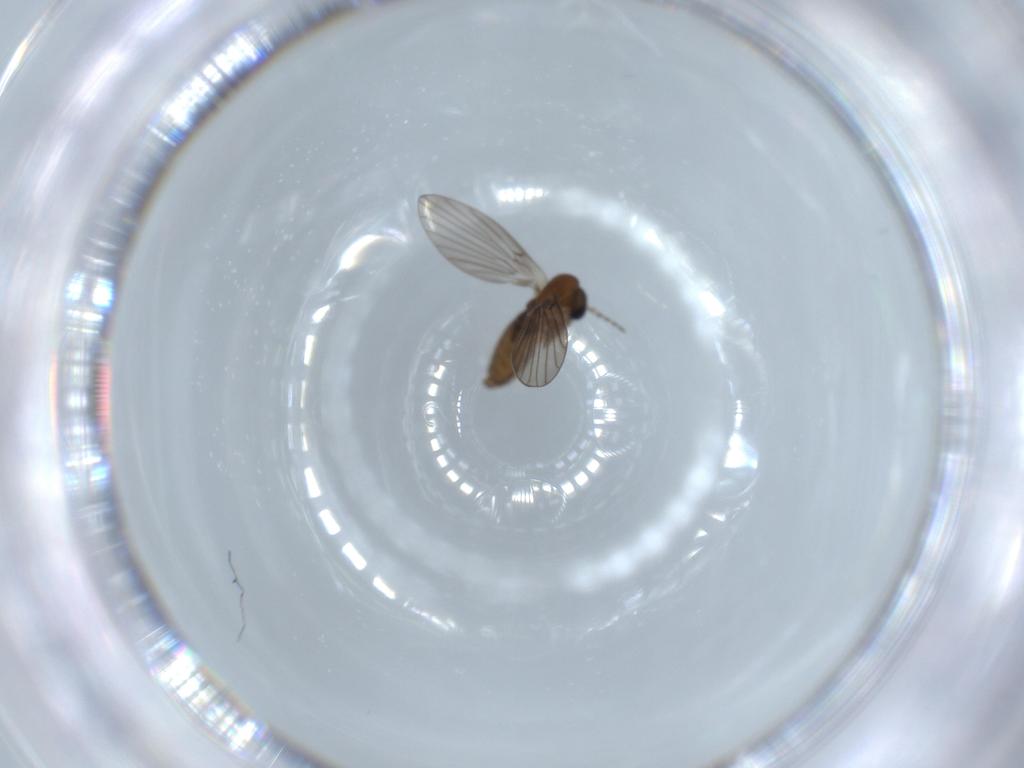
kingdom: Animalia
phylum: Arthropoda
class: Insecta
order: Diptera
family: Psychodidae
